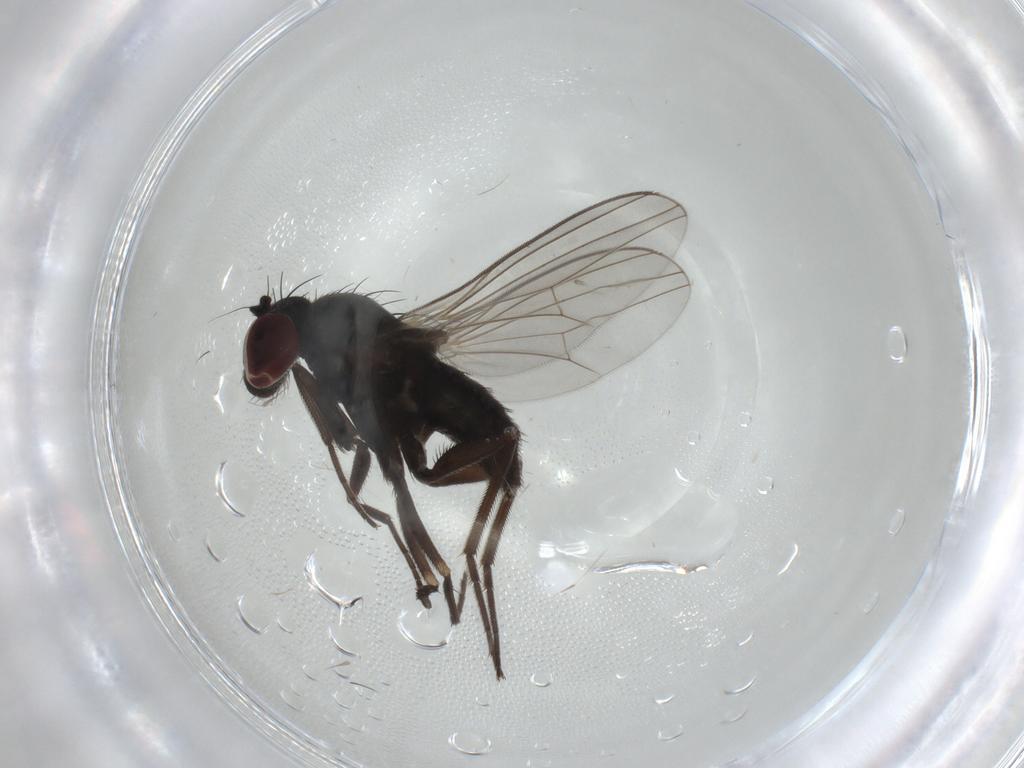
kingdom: Animalia
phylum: Arthropoda
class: Insecta
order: Diptera
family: Dolichopodidae
